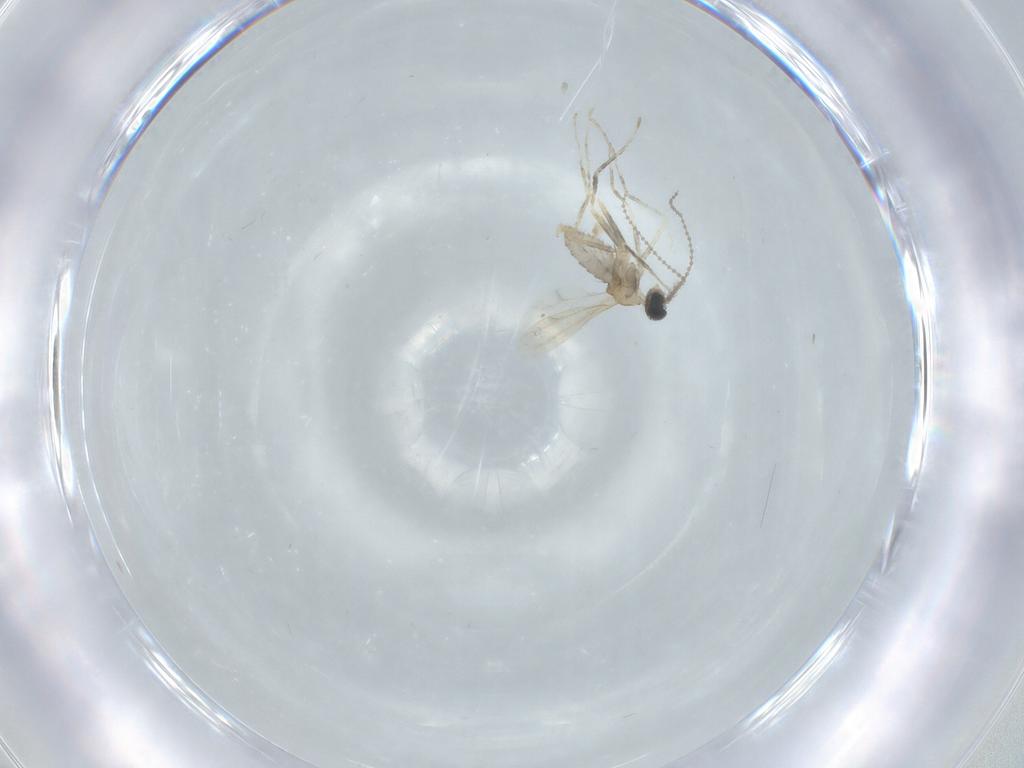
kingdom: Animalia
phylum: Arthropoda
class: Insecta
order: Diptera
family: Cecidomyiidae
